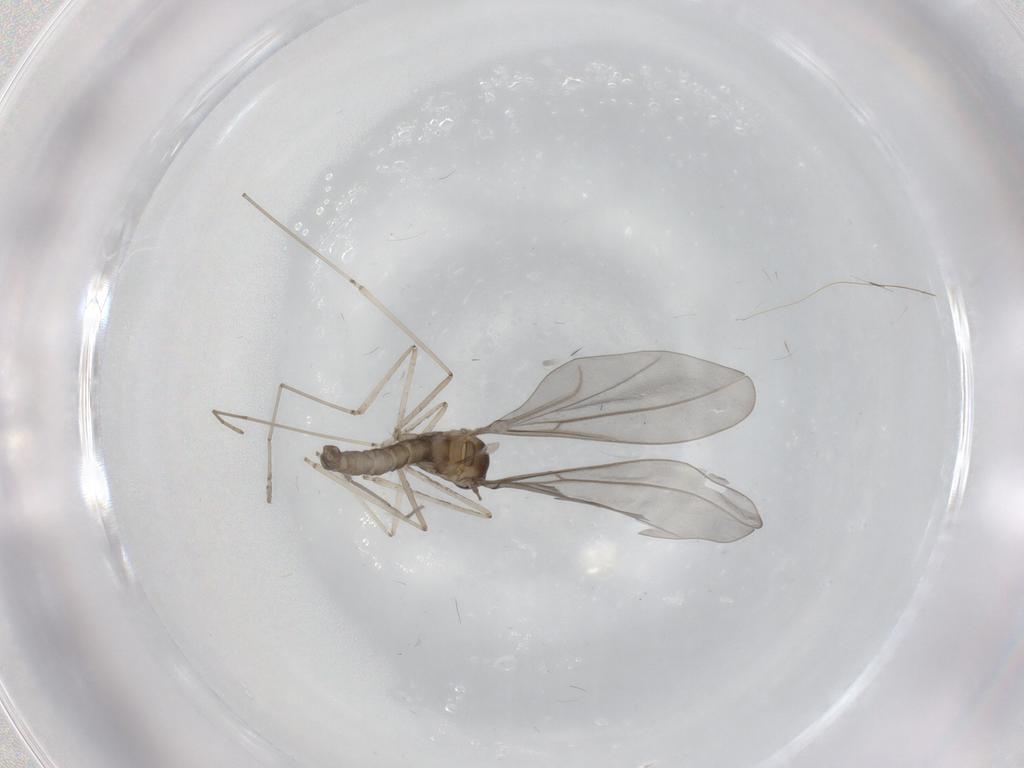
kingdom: Animalia
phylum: Arthropoda
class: Insecta
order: Diptera
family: Cecidomyiidae
